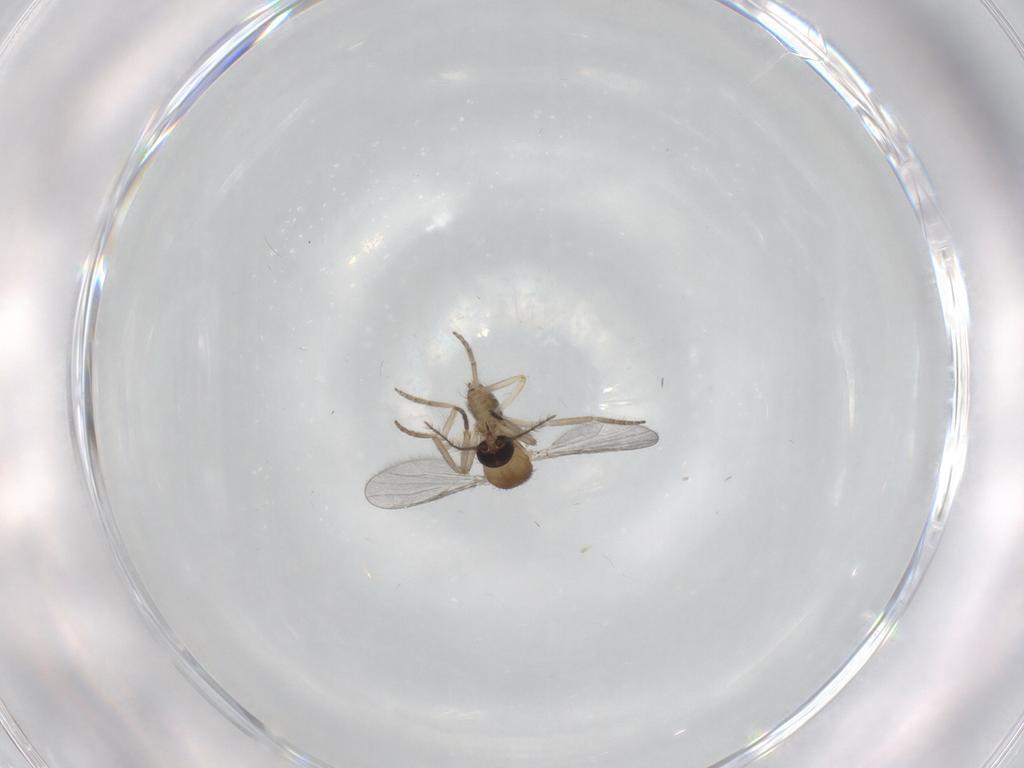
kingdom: Animalia
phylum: Arthropoda
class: Insecta
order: Diptera
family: Ceratopogonidae
